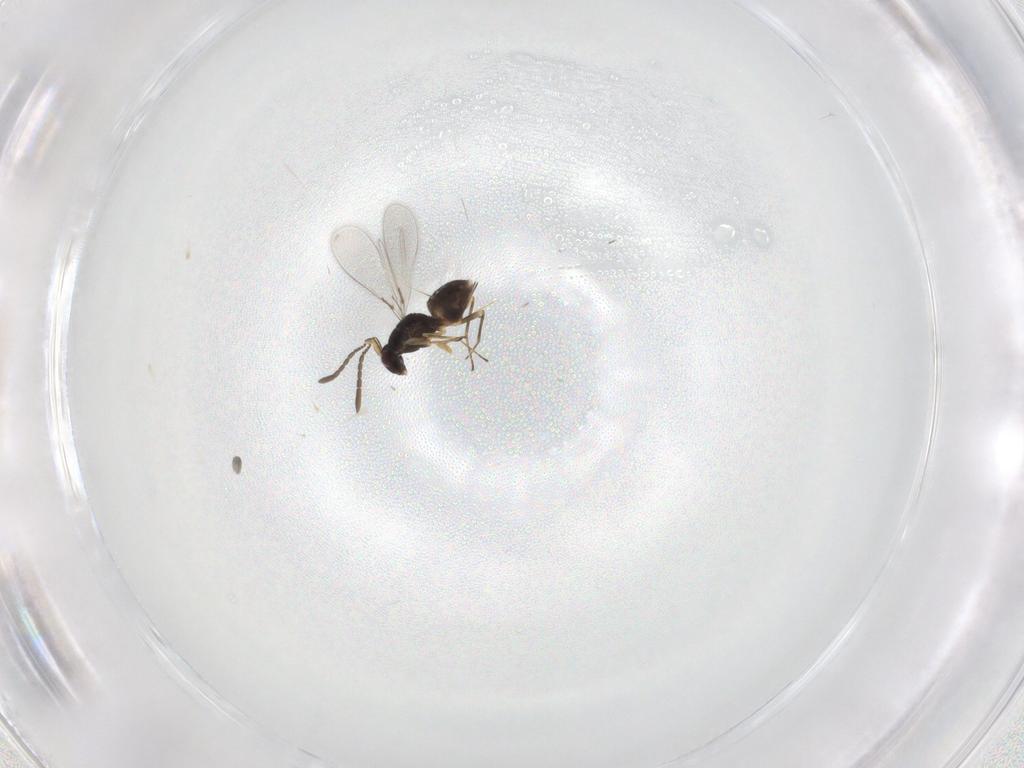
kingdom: Animalia
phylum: Arthropoda
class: Insecta
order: Hymenoptera
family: Mymaridae
